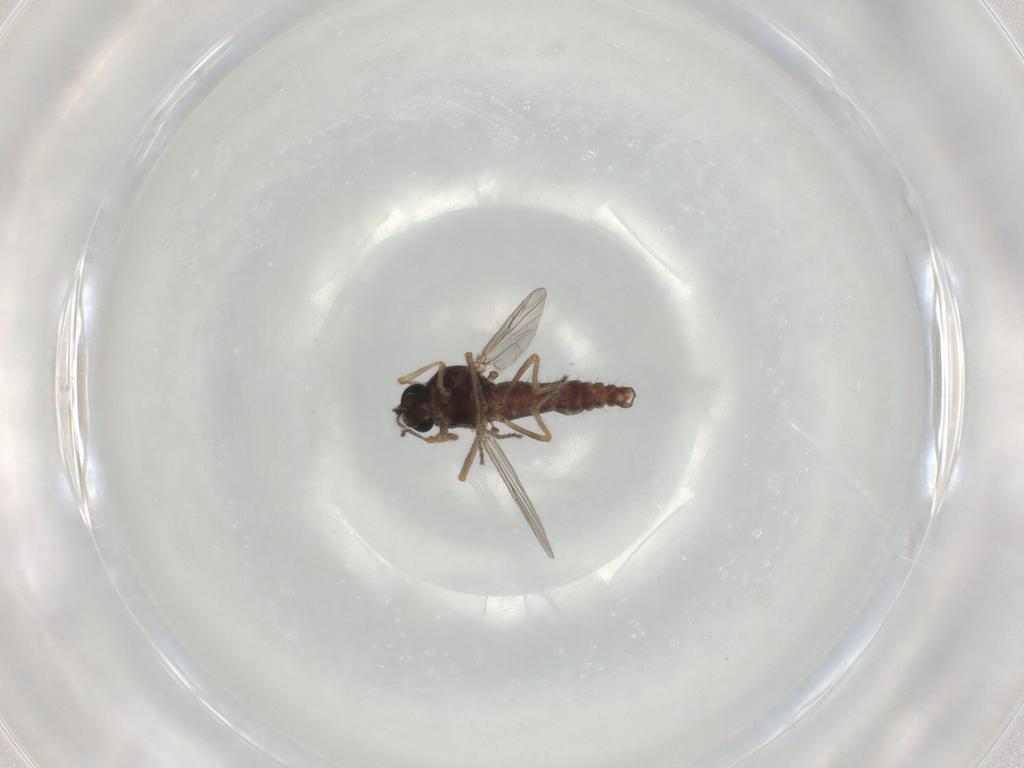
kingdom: Animalia
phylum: Arthropoda
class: Insecta
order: Diptera
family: Ceratopogonidae
